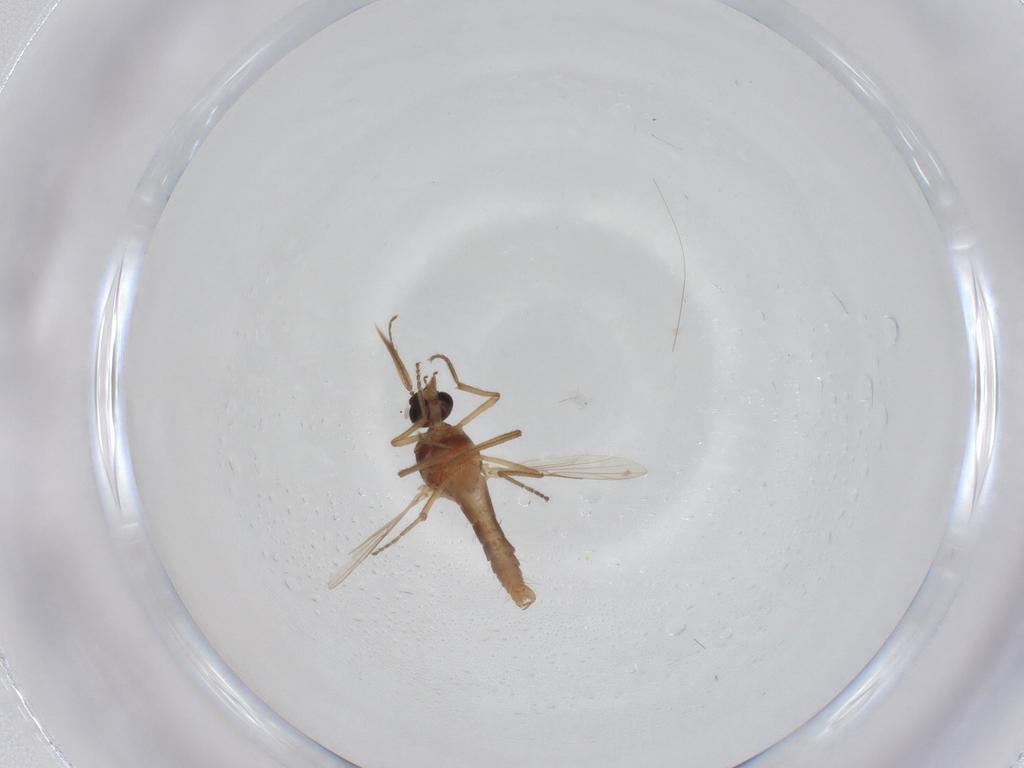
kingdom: Animalia
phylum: Arthropoda
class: Insecta
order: Diptera
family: Ceratopogonidae
